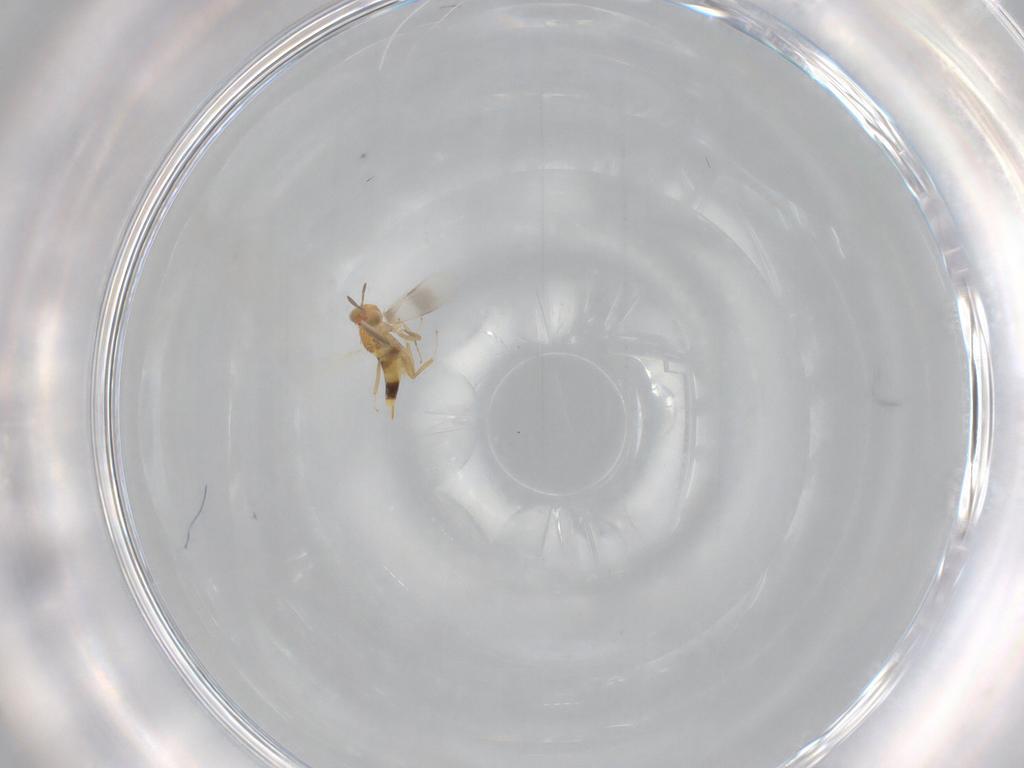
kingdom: Animalia
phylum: Arthropoda
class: Insecta
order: Hymenoptera
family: Aphelinidae
